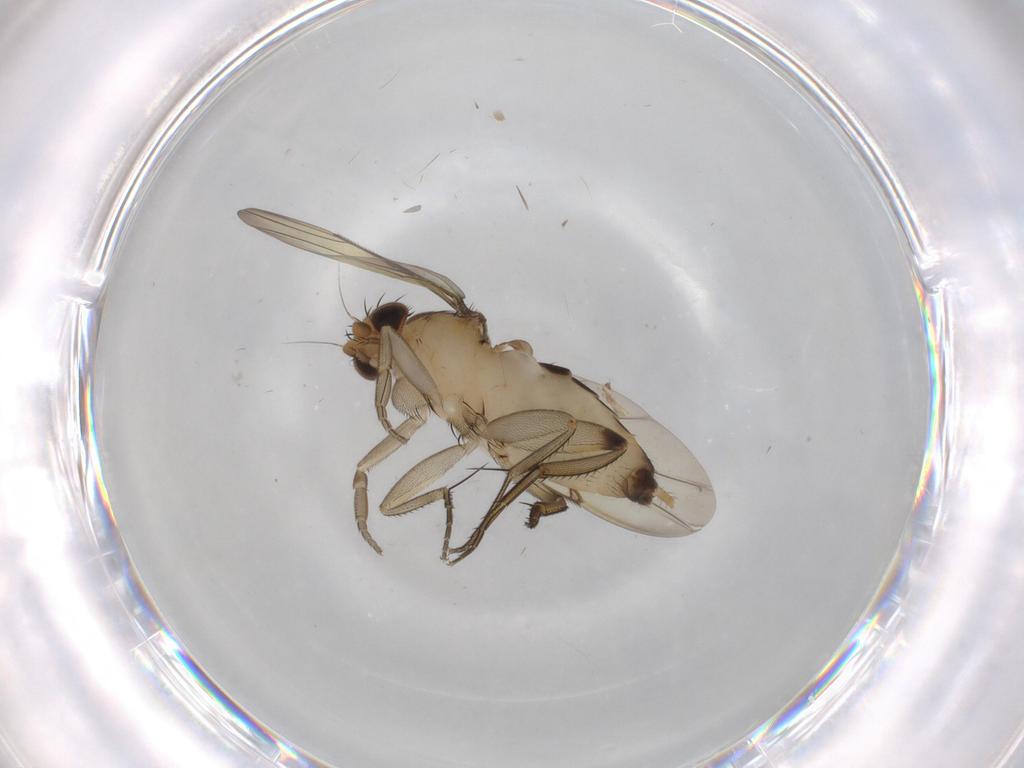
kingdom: Animalia
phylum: Arthropoda
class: Insecta
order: Diptera
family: Phoridae
